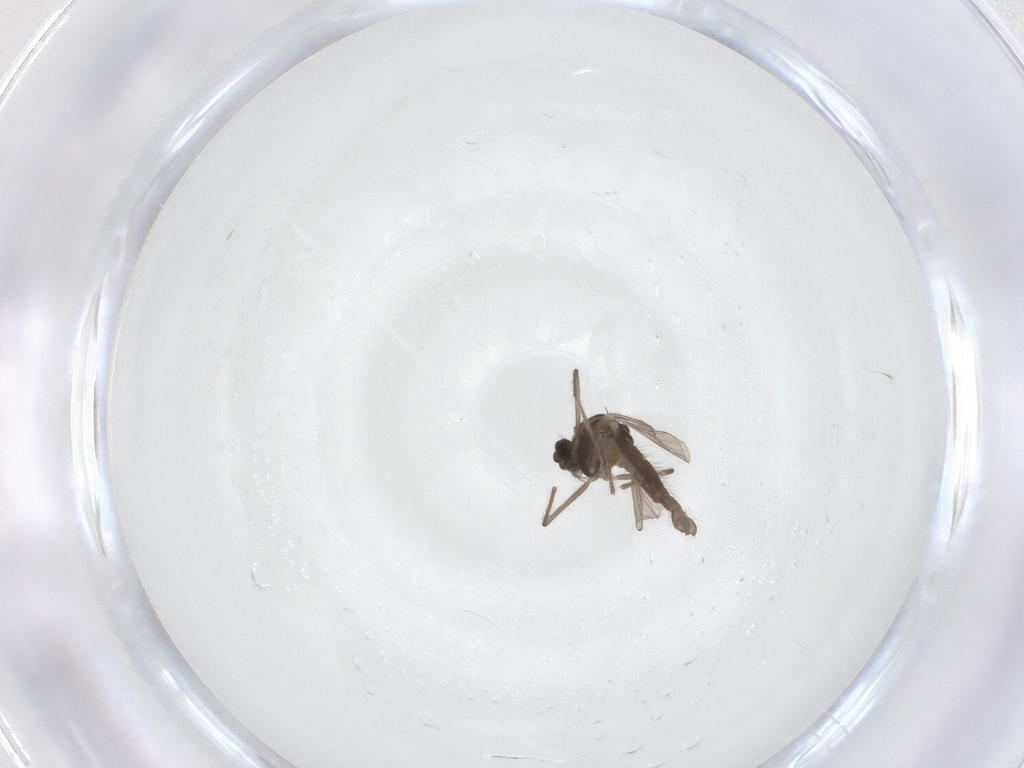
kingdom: Animalia
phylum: Arthropoda
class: Insecta
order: Diptera
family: Chironomidae
